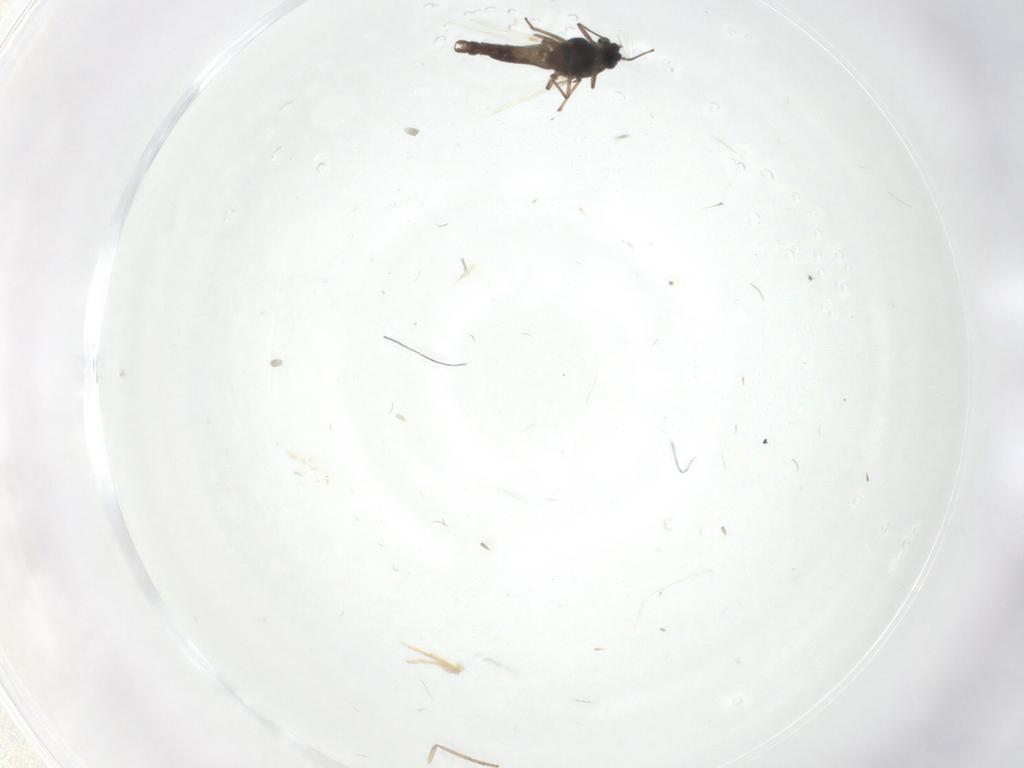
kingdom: Animalia
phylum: Arthropoda
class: Insecta
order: Diptera
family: Chironomidae
